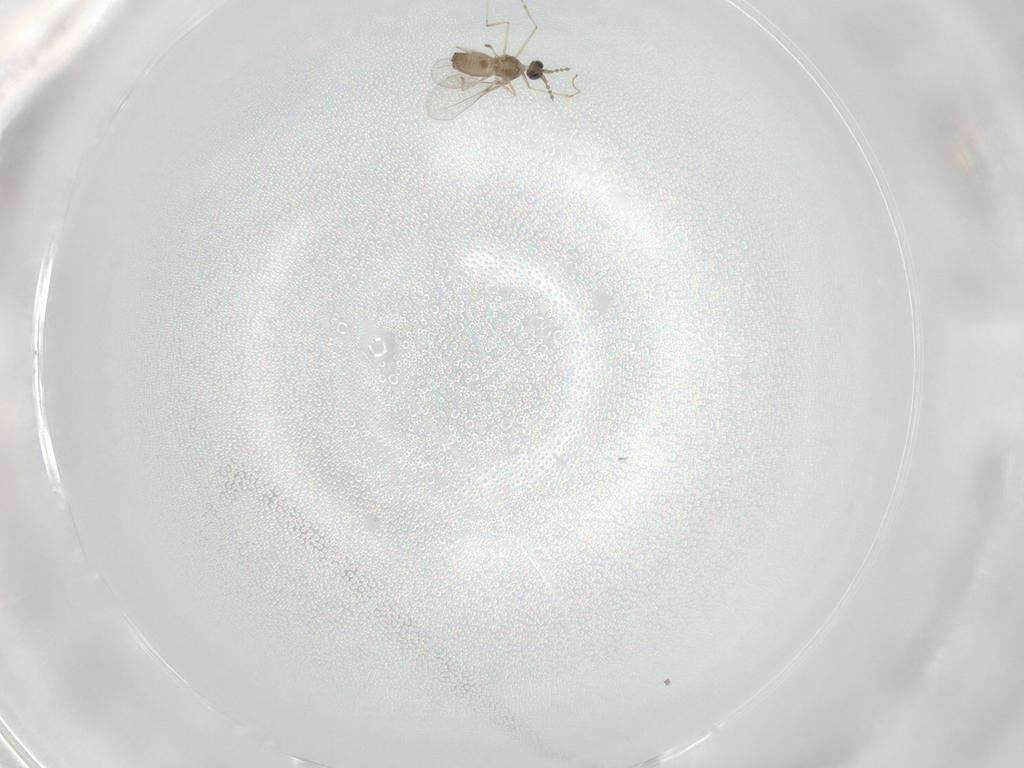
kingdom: Animalia
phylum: Arthropoda
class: Insecta
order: Diptera
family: Cecidomyiidae
